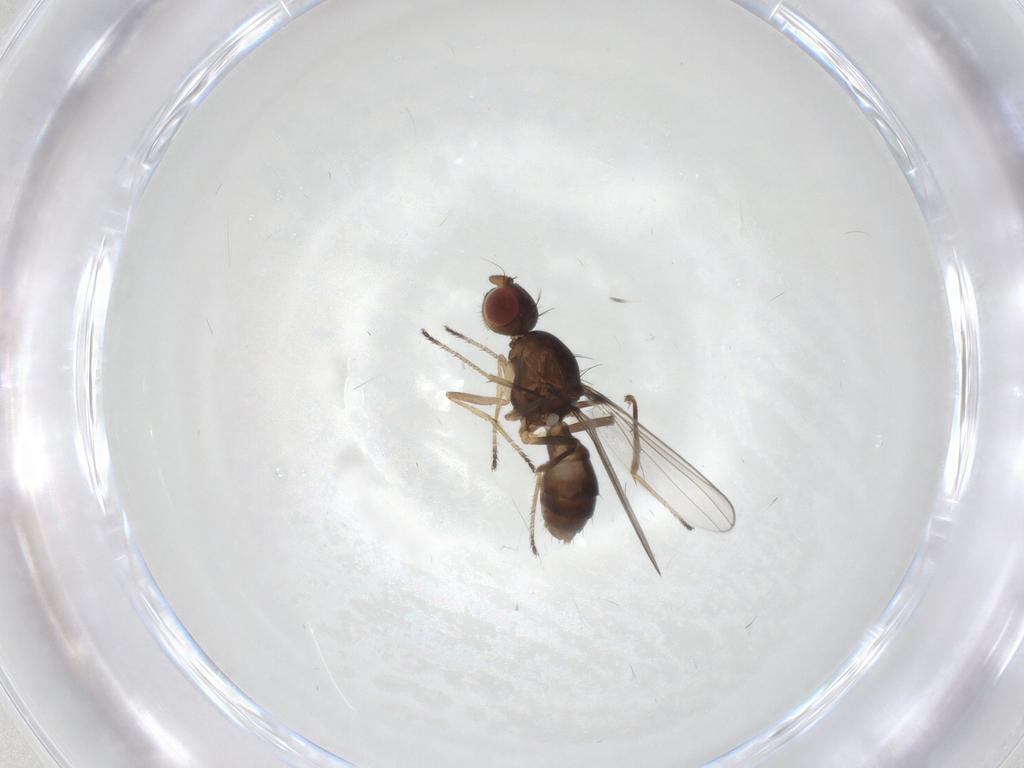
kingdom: Animalia
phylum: Arthropoda
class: Insecta
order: Diptera
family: Sepsidae
